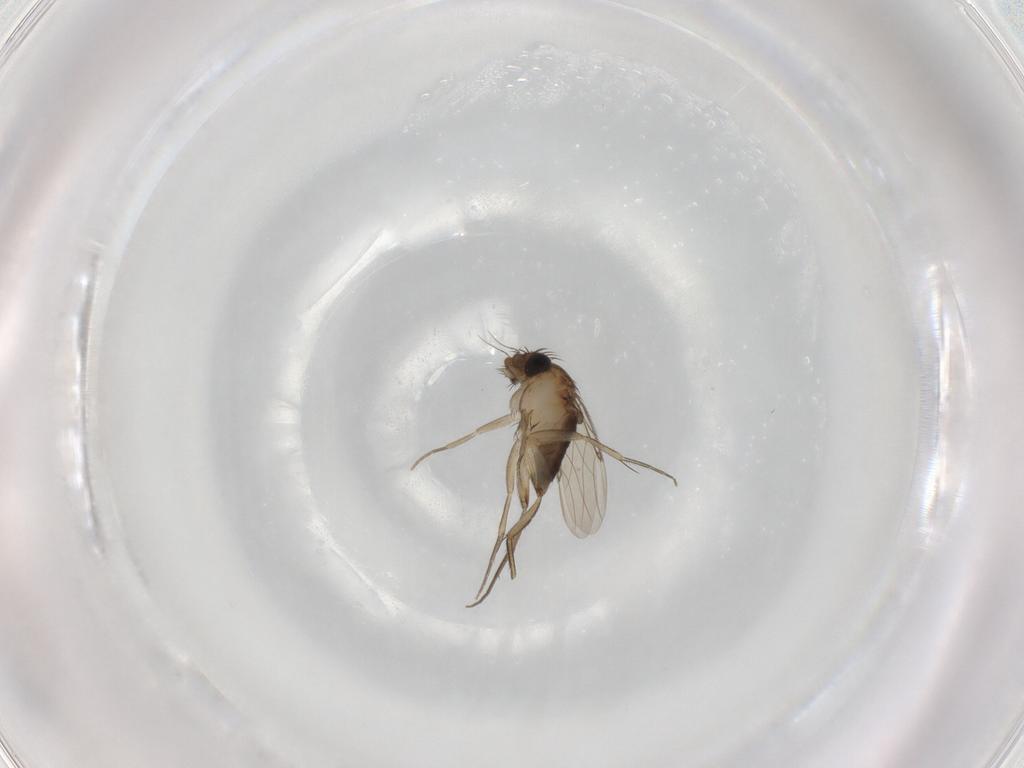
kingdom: Animalia
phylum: Arthropoda
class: Insecta
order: Diptera
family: Phoridae
